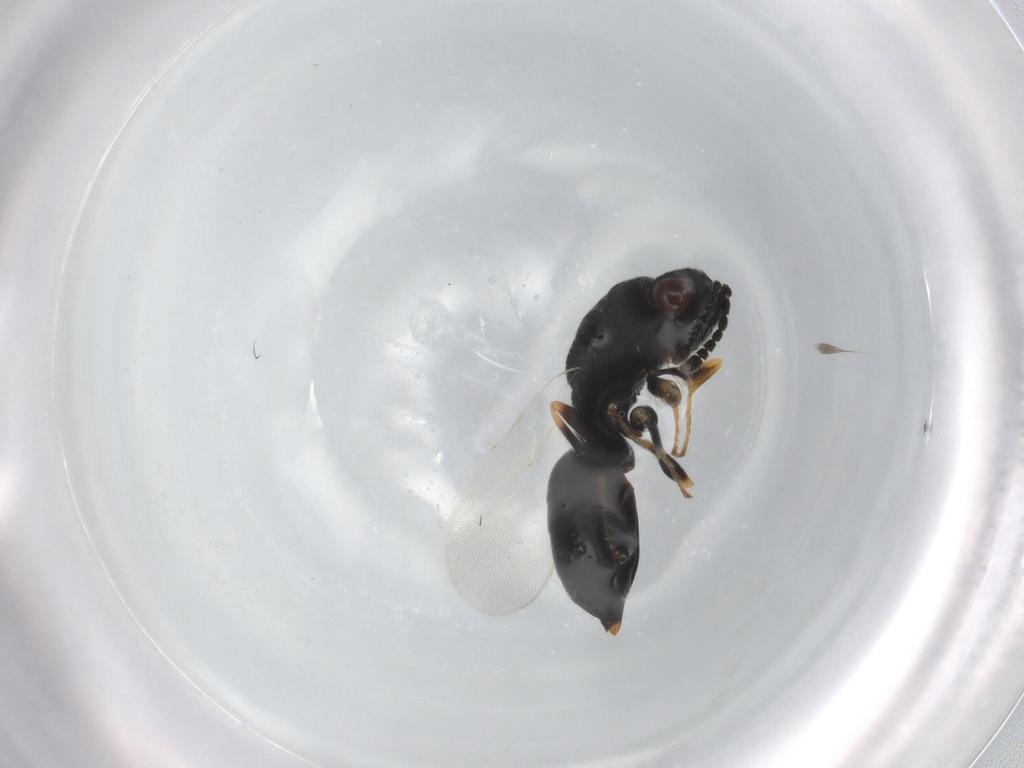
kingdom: Animalia
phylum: Arthropoda
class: Insecta
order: Hymenoptera
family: Eurytomidae
